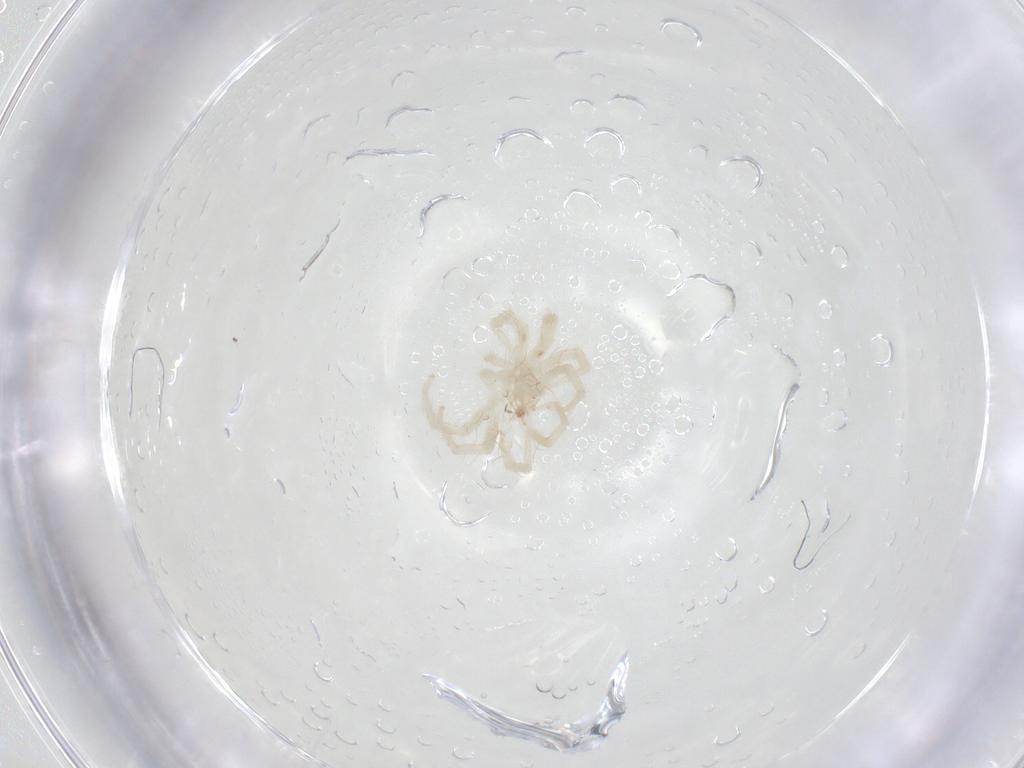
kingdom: Animalia
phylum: Arthropoda
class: Arachnida
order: Trombidiformes
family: Anystidae
